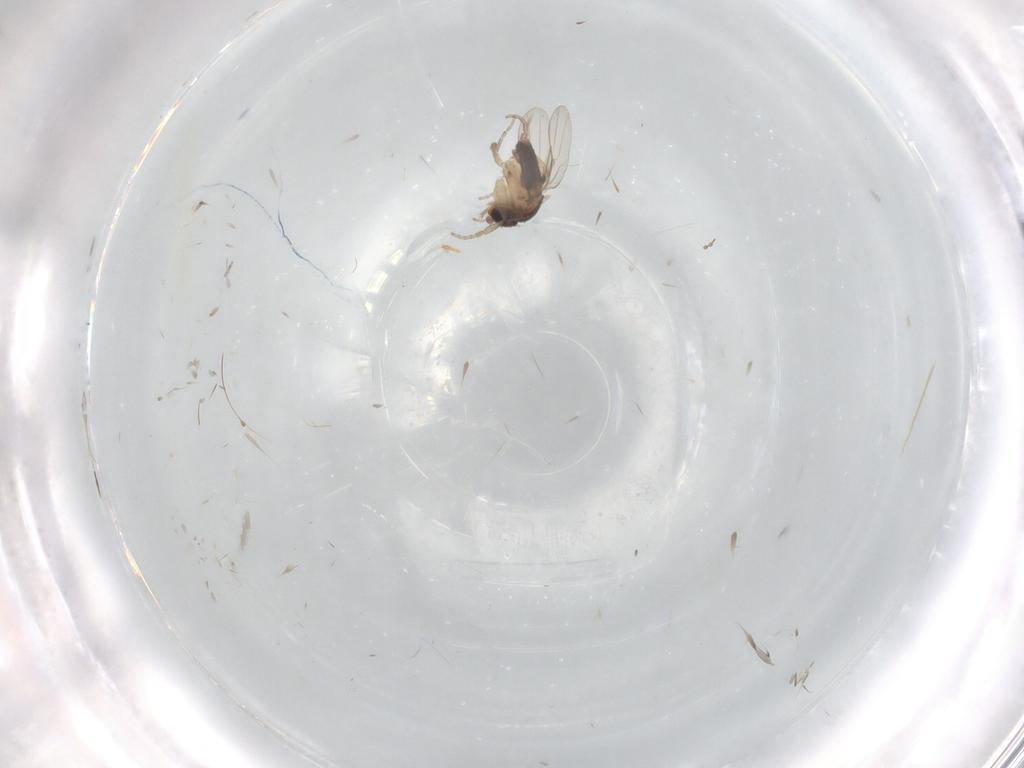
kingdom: Animalia
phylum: Arthropoda
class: Insecta
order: Diptera
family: Phoridae
